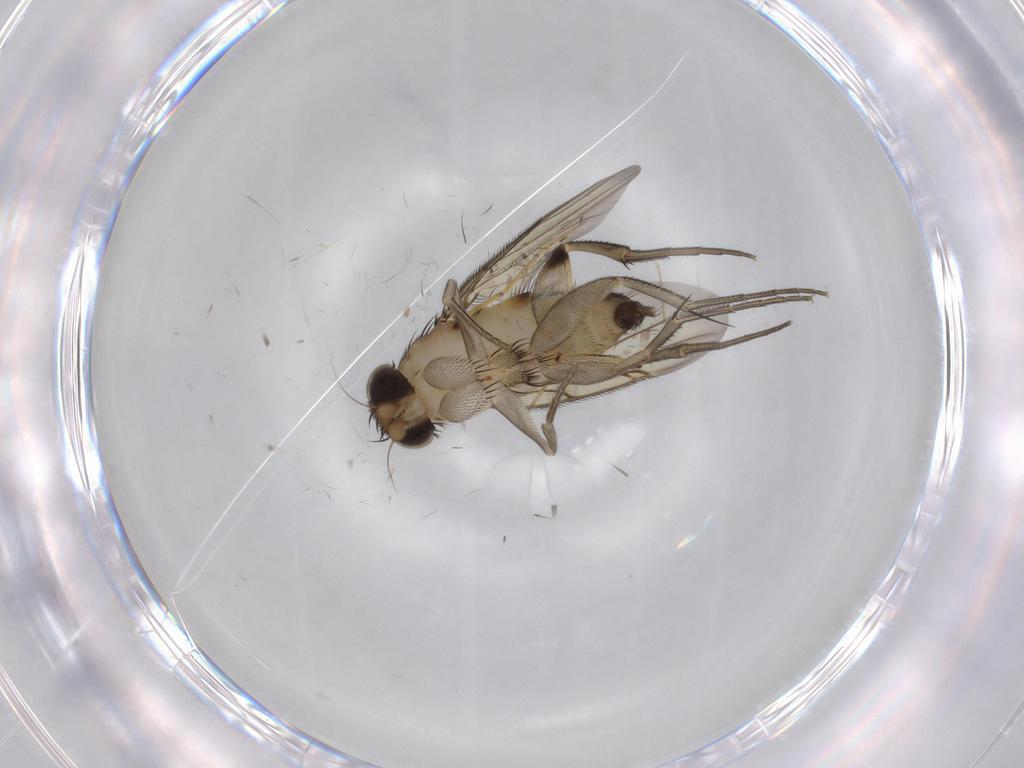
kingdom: Animalia
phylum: Arthropoda
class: Insecta
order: Diptera
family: Phoridae
